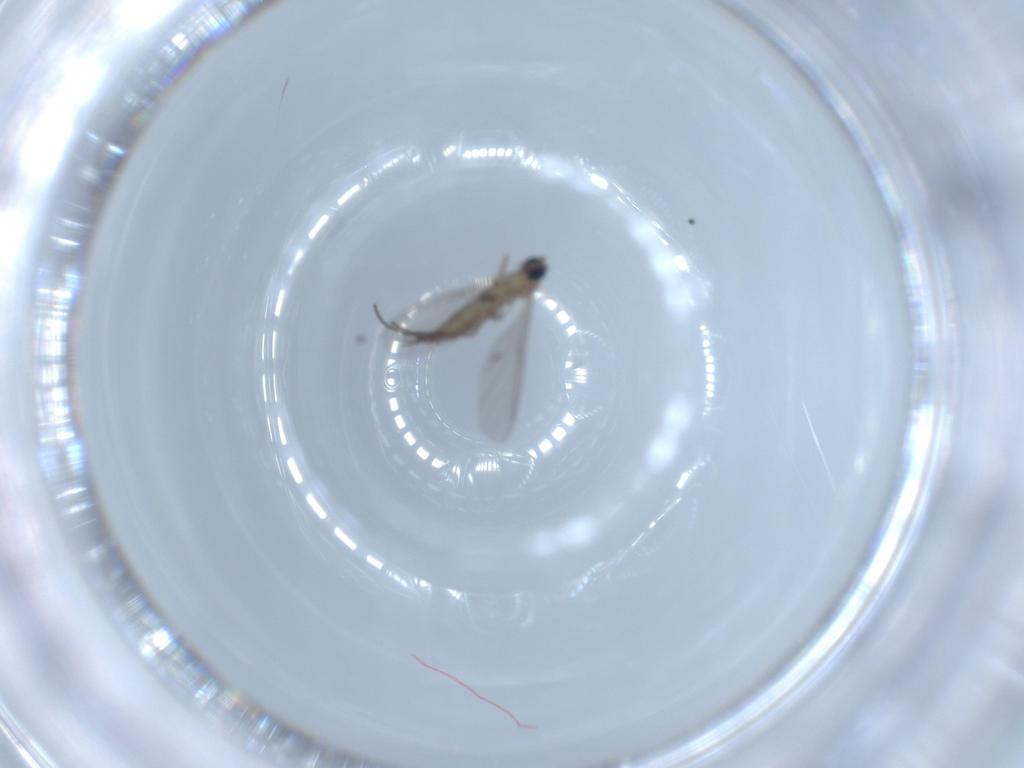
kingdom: Animalia
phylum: Arthropoda
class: Insecta
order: Diptera
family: Sciaridae
